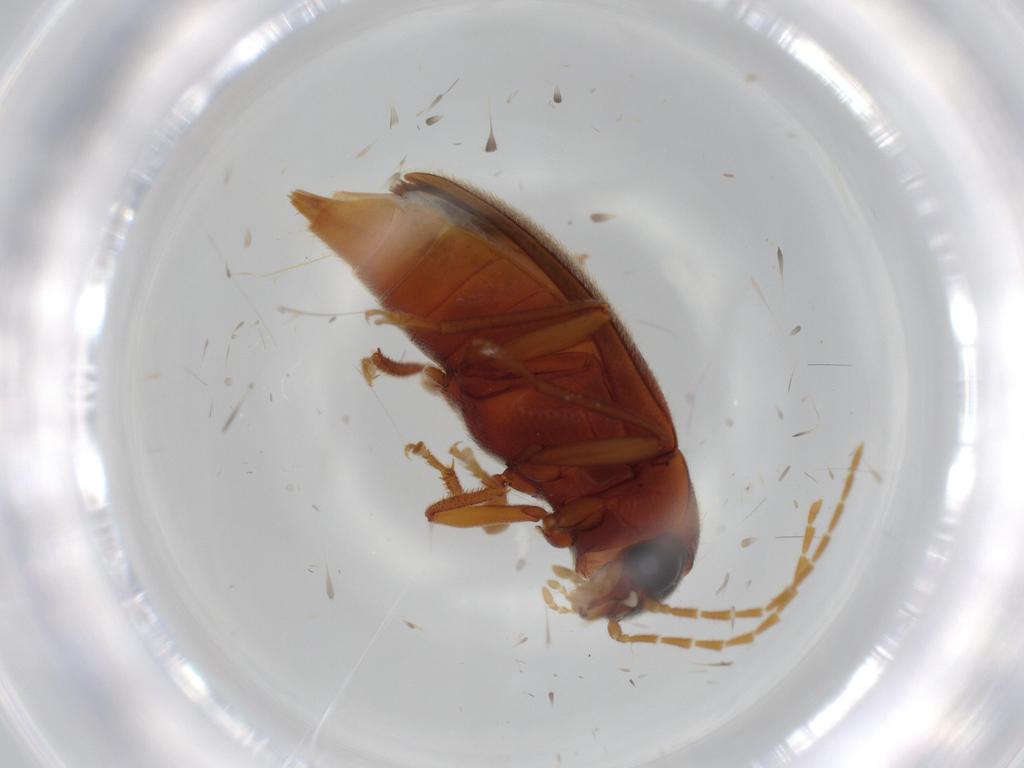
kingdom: Animalia
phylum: Arthropoda
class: Insecta
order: Coleoptera
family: Ptilodactylidae
